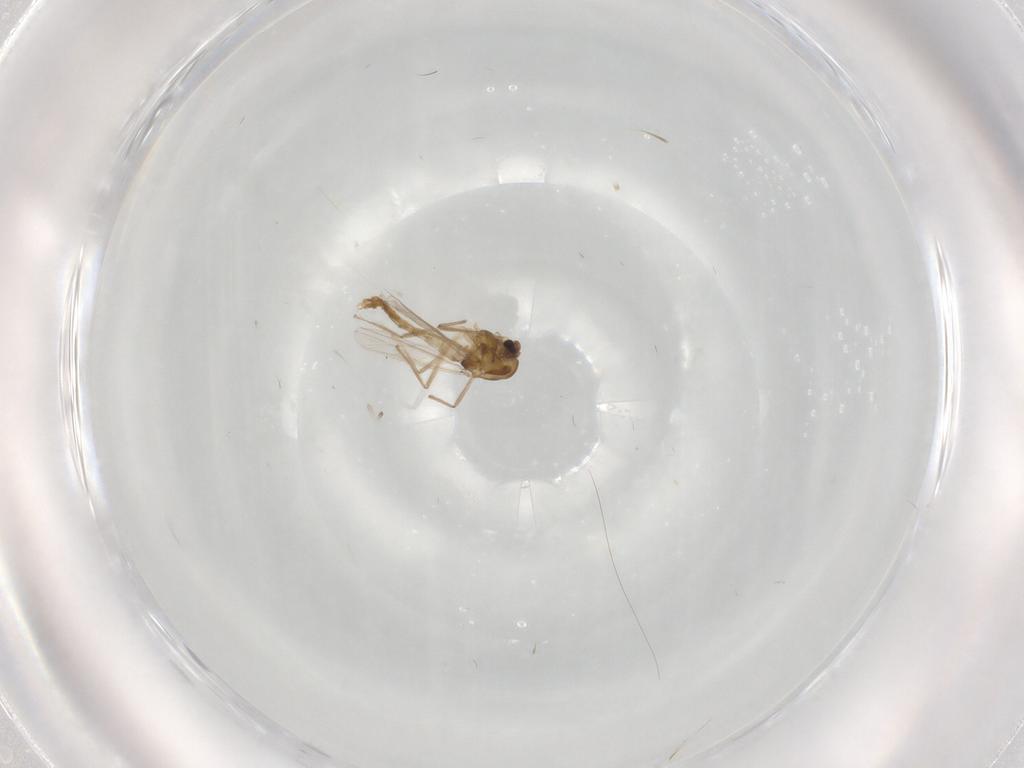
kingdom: Animalia
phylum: Arthropoda
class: Insecta
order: Diptera
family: Chironomidae
